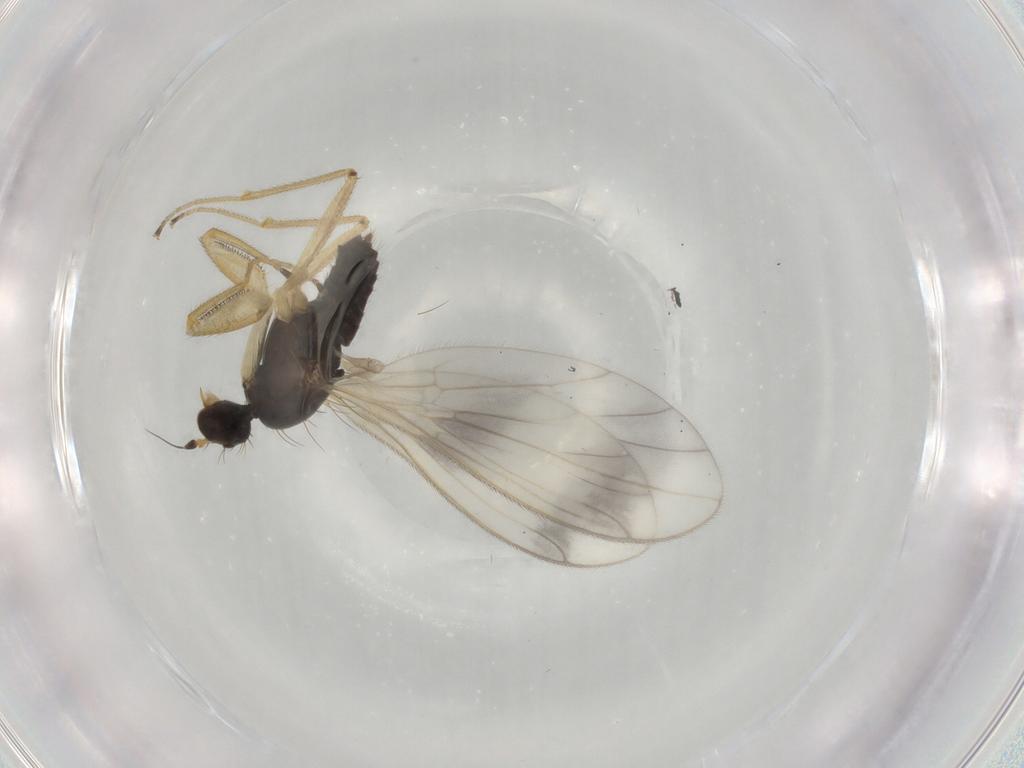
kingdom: Animalia
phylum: Arthropoda
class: Insecta
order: Diptera
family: Empididae
